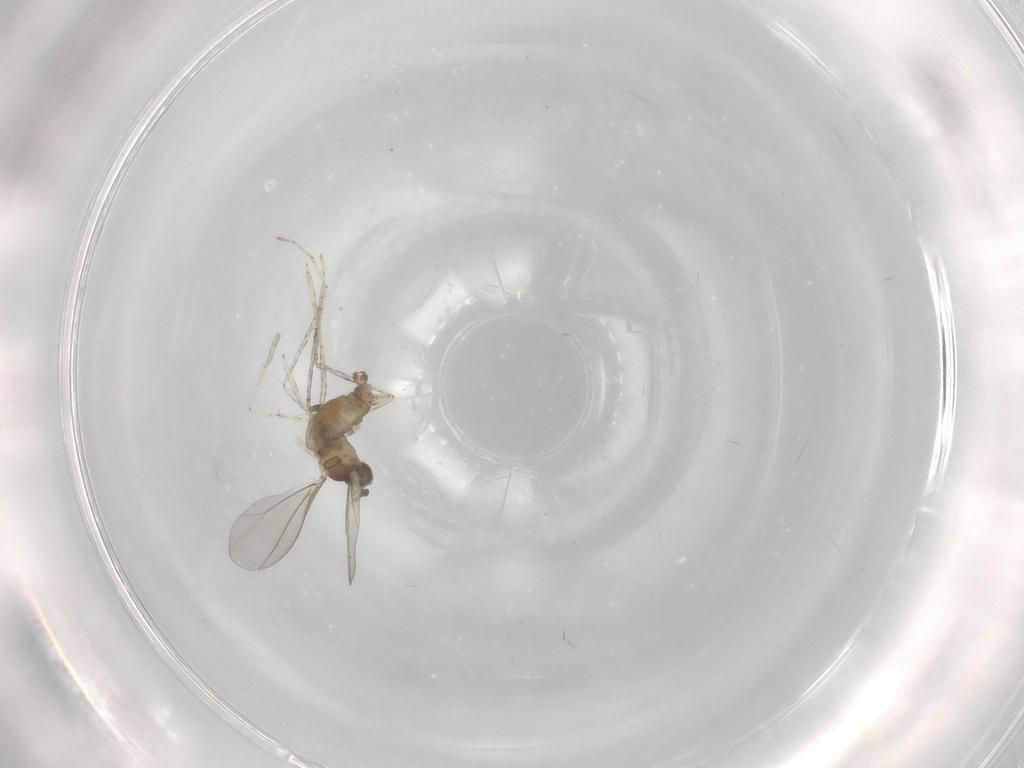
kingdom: Animalia
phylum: Arthropoda
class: Insecta
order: Diptera
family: Cecidomyiidae
